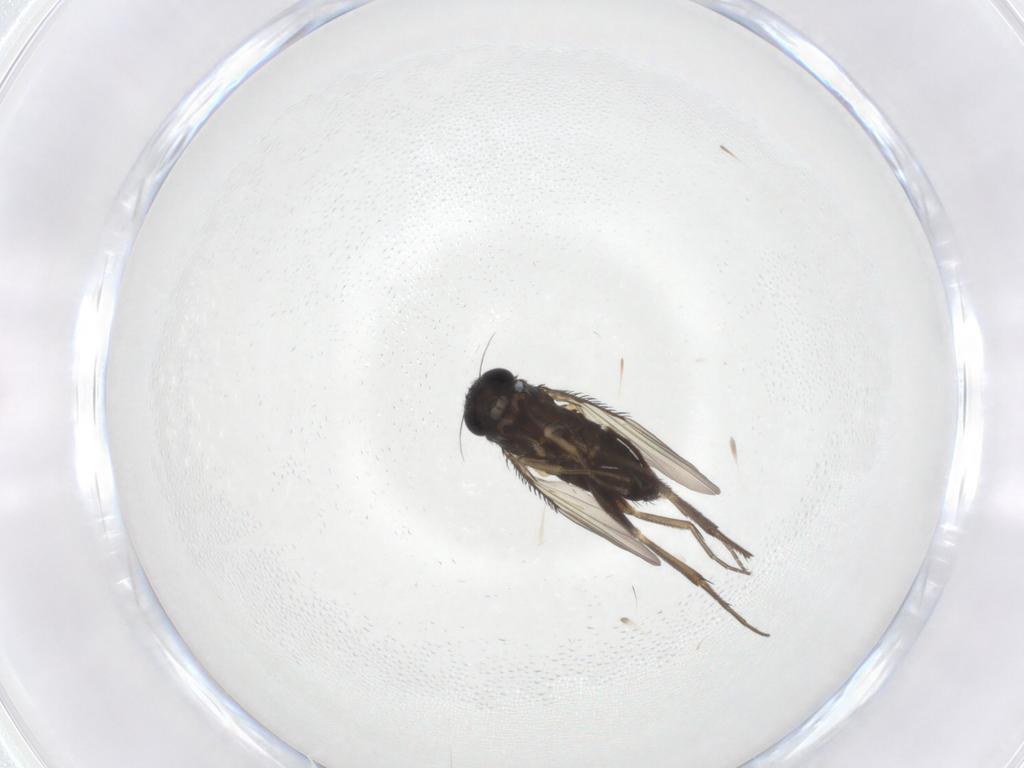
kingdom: Animalia
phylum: Arthropoda
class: Insecta
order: Diptera
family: Phoridae
